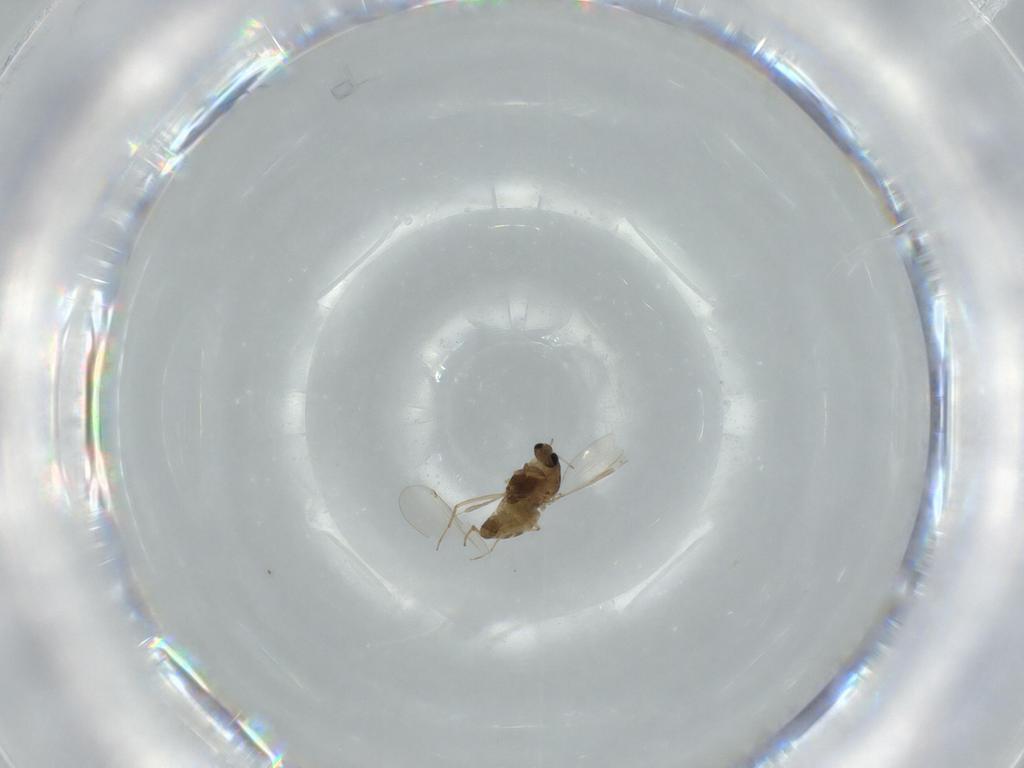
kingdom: Animalia
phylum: Arthropoda
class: Insecta
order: Diptera
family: Chironomidae
